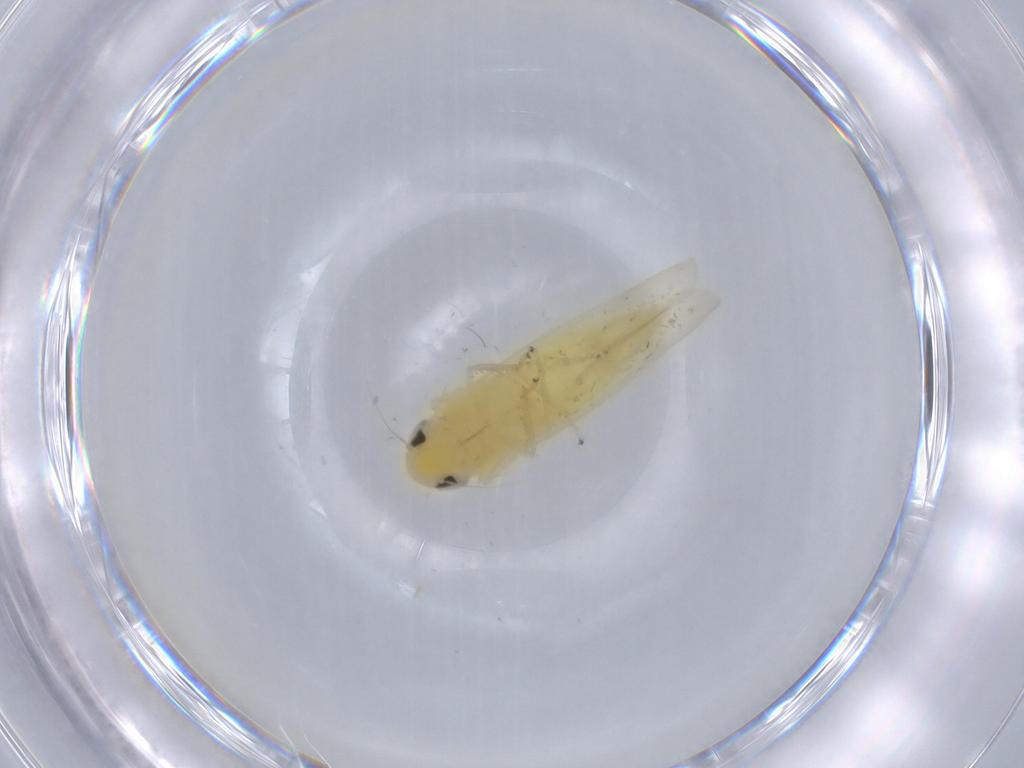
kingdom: Animalia
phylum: Arthropoda
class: Insecta
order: Hemiptera
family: Cicadellidae
